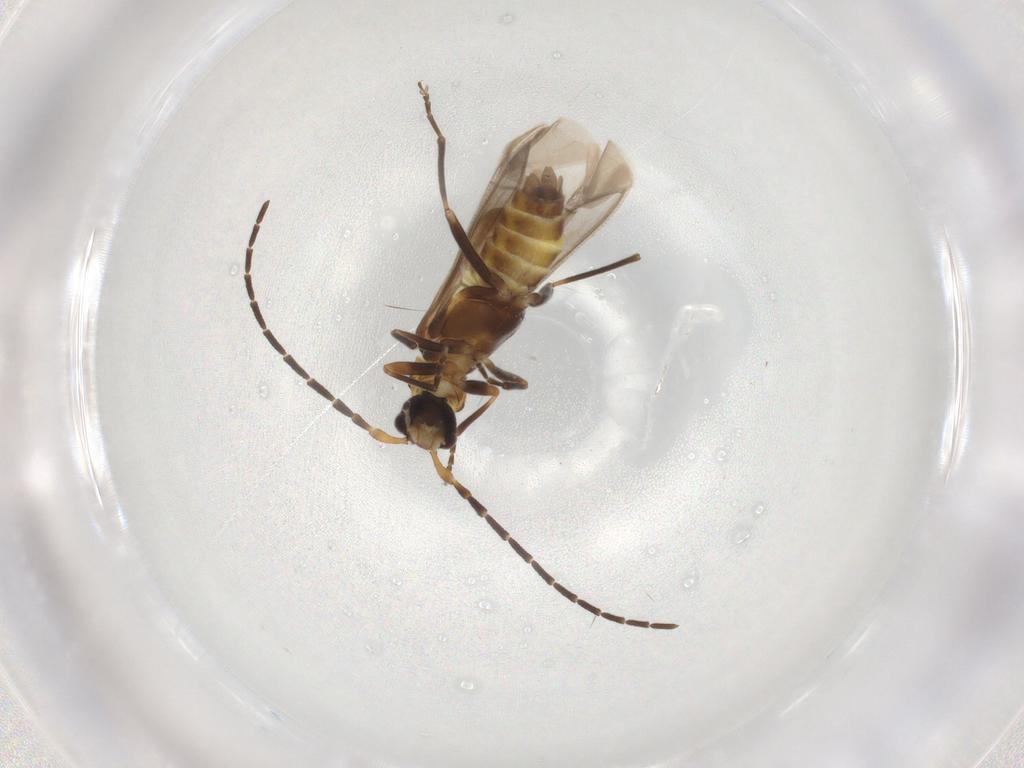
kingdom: Animalia
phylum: Arthropoda
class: Insecta
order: Coleoptera
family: Cantharidae
